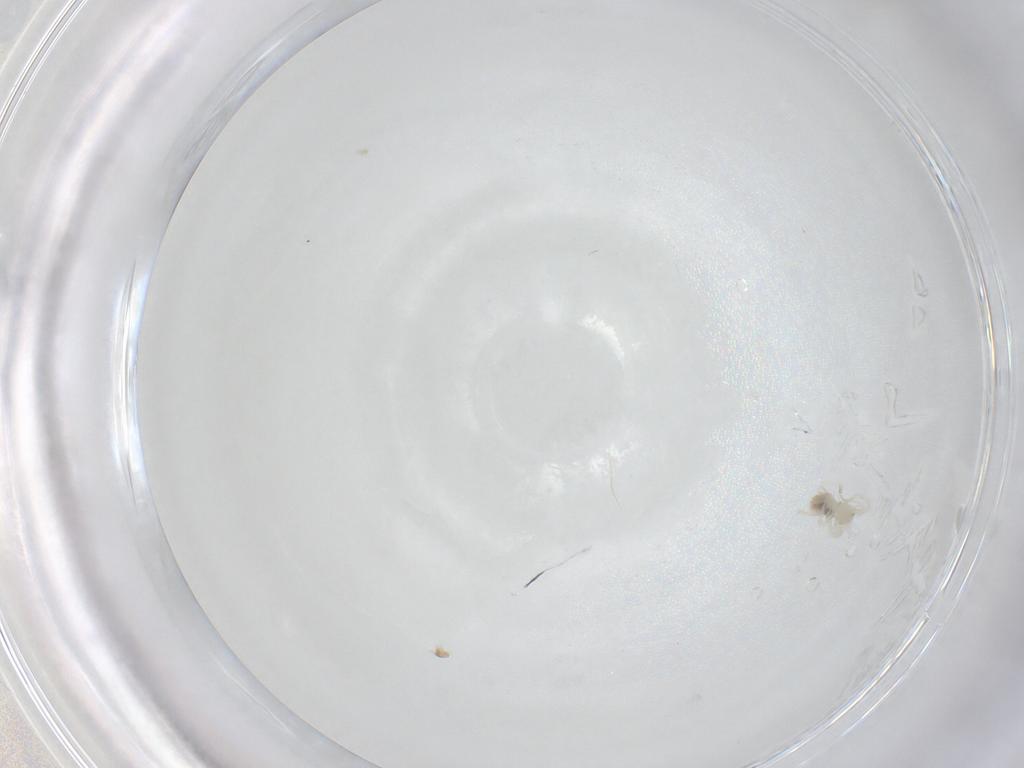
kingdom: Animalia
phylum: Arthropoda
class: Arachnida
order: Trombidiformes
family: Anystidae
